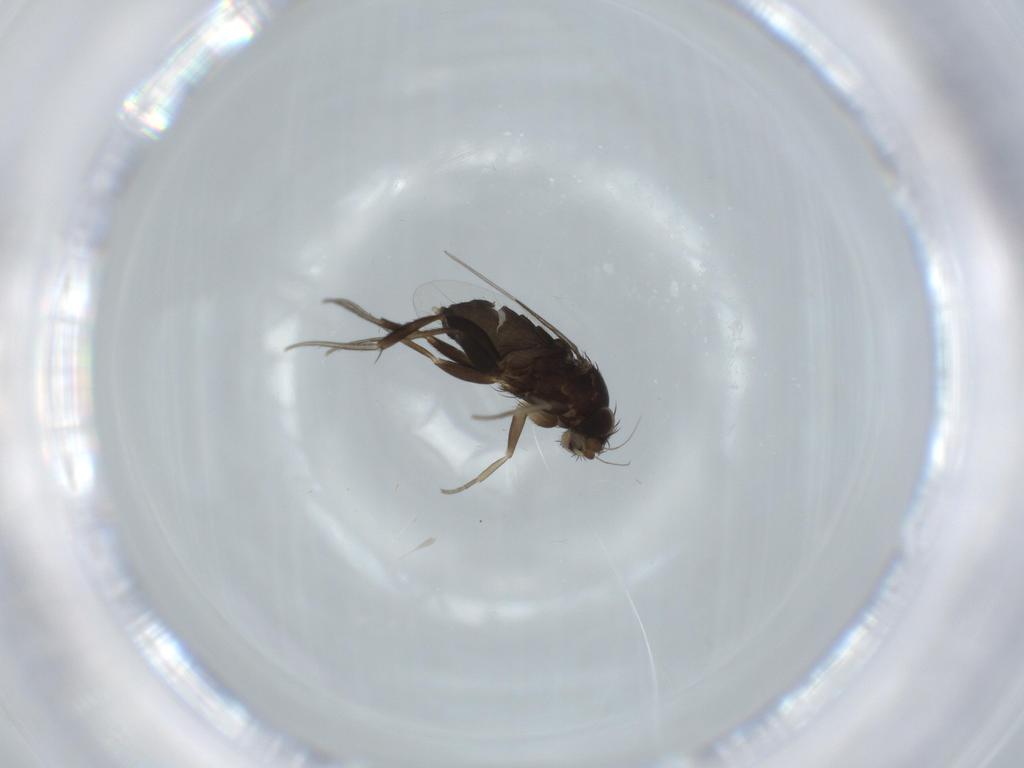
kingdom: Animalia
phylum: Arthropoda
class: Insecta
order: Diptera
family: Phoridae
